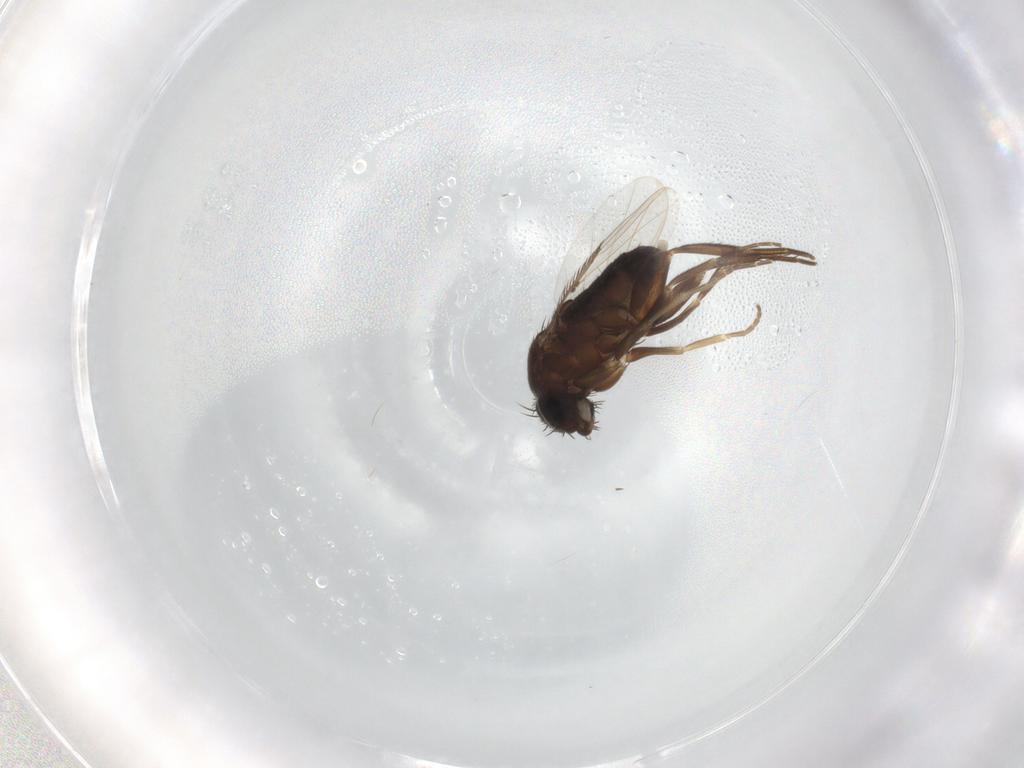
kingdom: Animalia
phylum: Arthropoda
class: Insecta
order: Diptera
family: Phoridae
